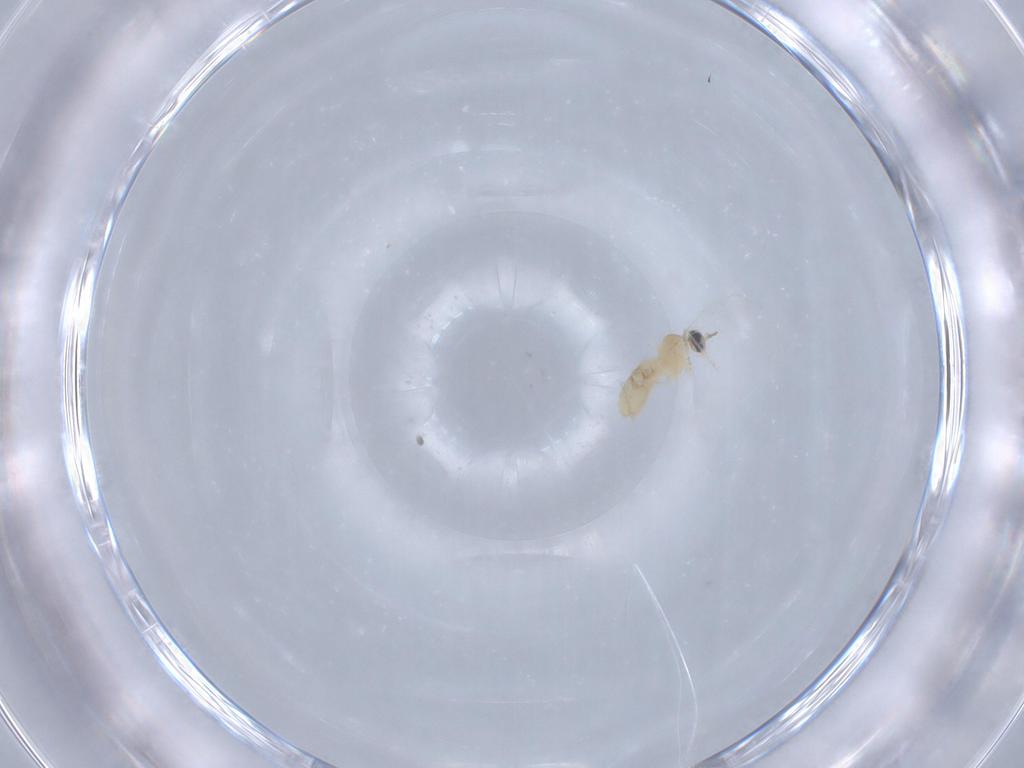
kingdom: Animalia
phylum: Arthropoda
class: Insecta
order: Diptera
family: Cecidomyiidae
